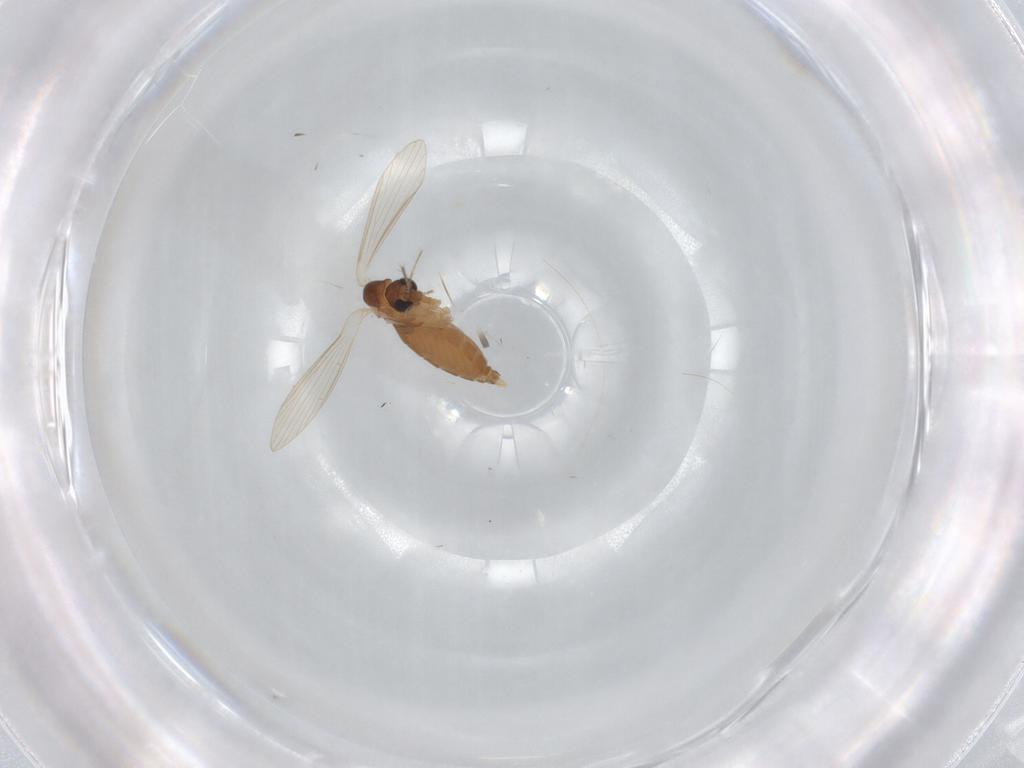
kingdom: Animalia
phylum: Arthropoda
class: Insecta
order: Diptera
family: Psychodidae
